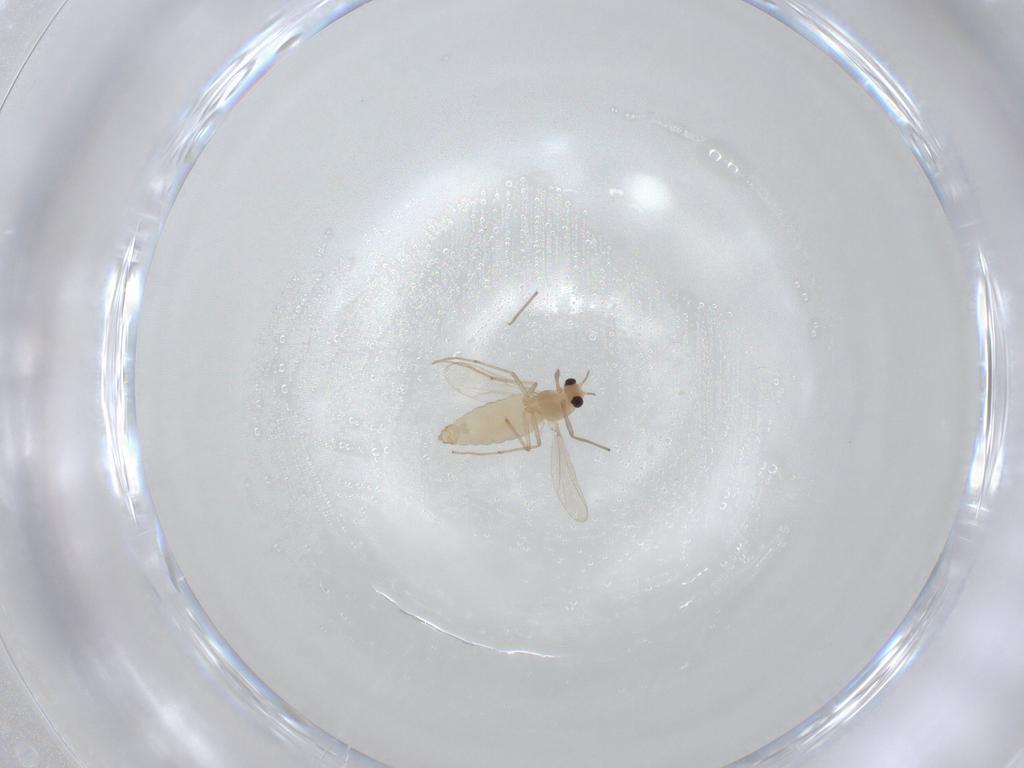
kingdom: Animalia
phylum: Arthropoda
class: Insecta
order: Diptera
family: Chironomidae
